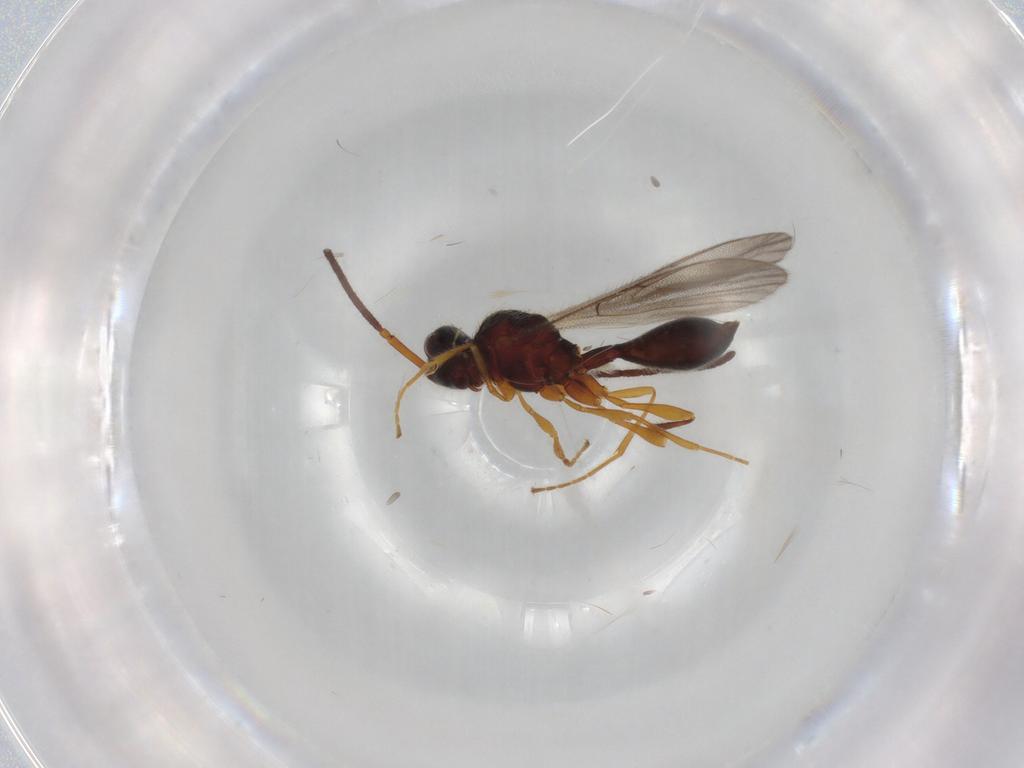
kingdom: Animalia
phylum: Arthropoda
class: Insecta
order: Hymenoptera
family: Diapriidae
